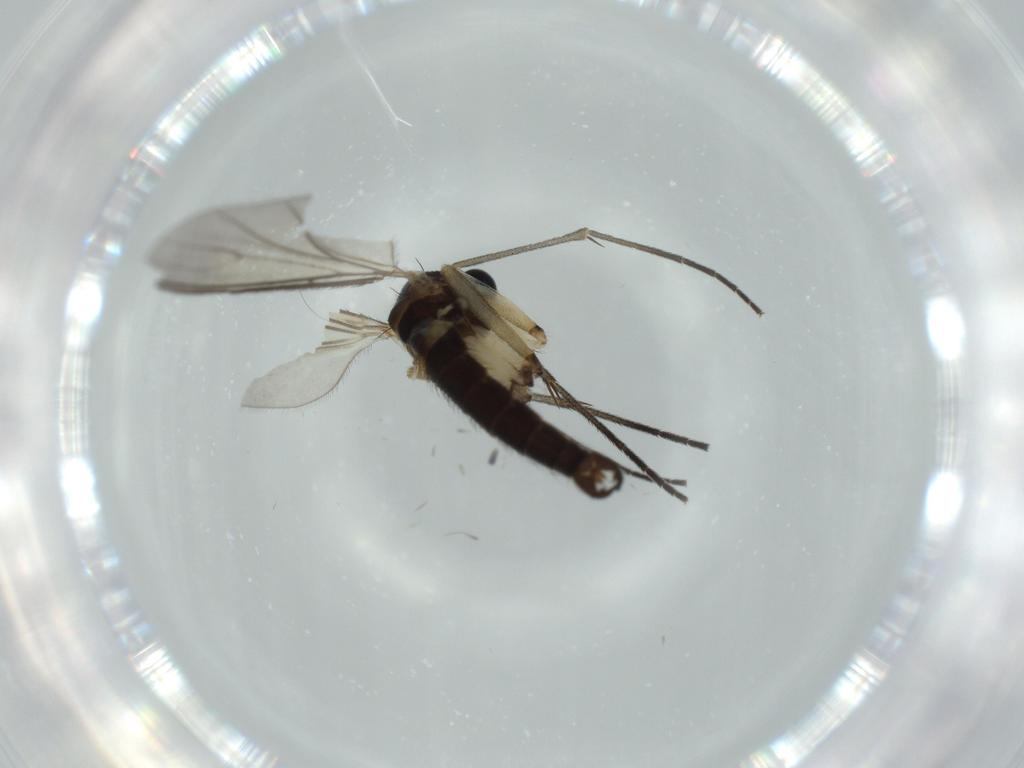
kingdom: Animalia
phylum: Arthropoda
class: Insecta
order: Diptera
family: Sciaridae
